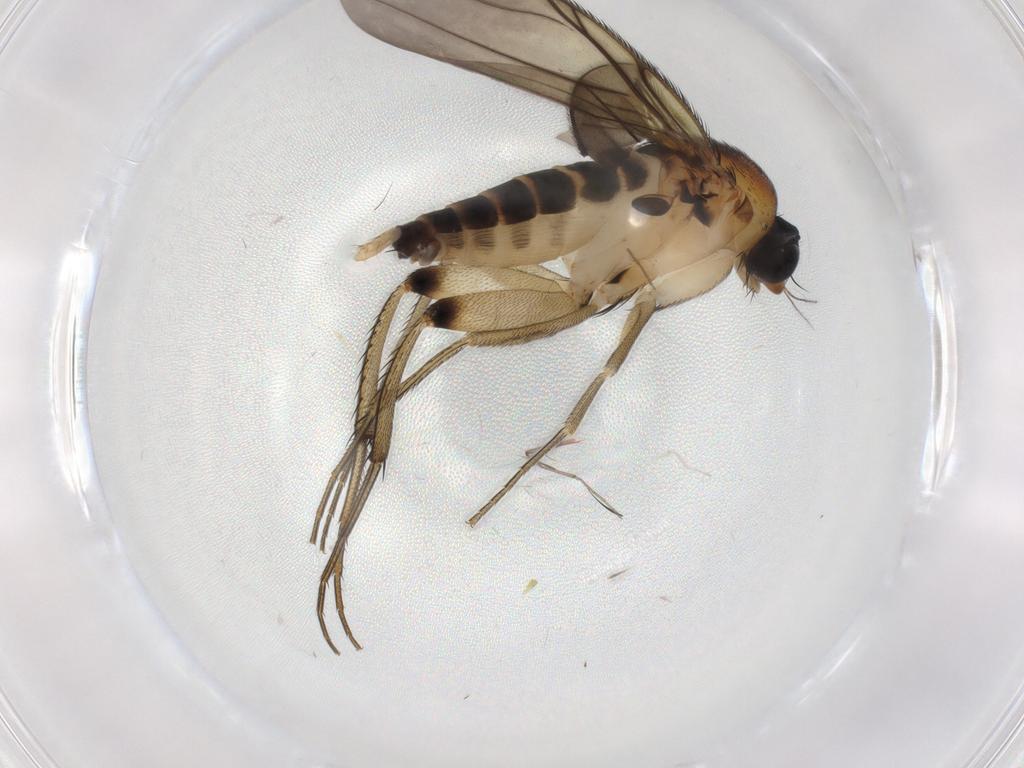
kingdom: Animalia
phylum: Arthropoda
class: Insecta
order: Diptera
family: Phoridae
